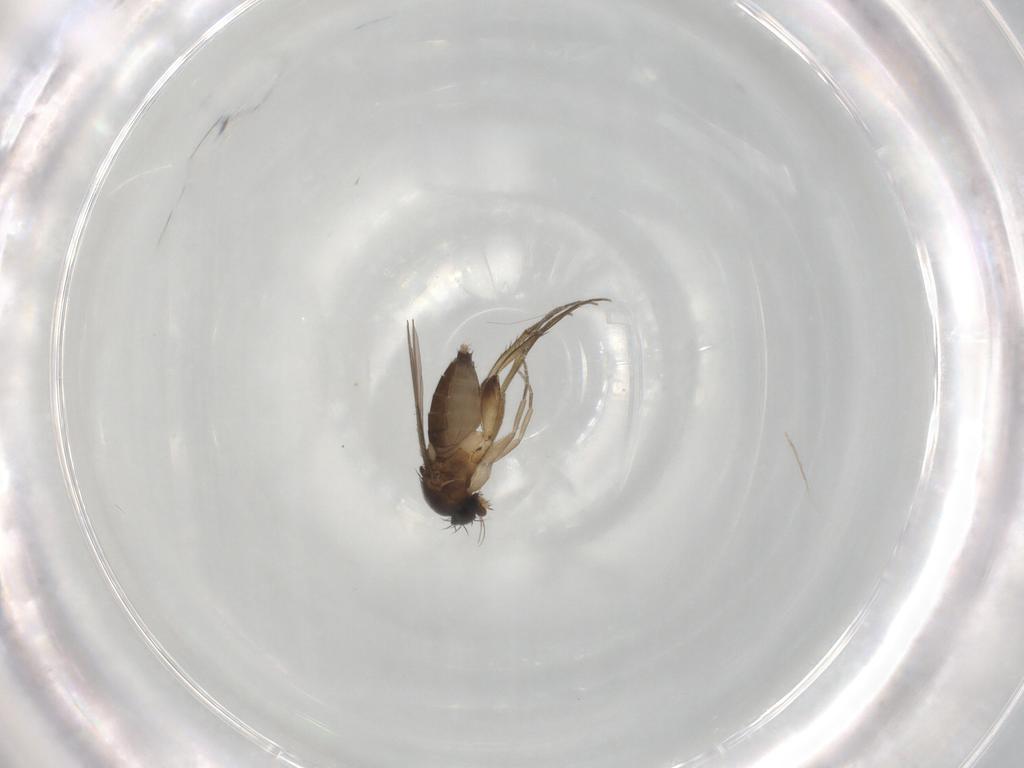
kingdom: Animalia
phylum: Arthropoda
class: Insecta
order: Diptera
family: Phoridae
